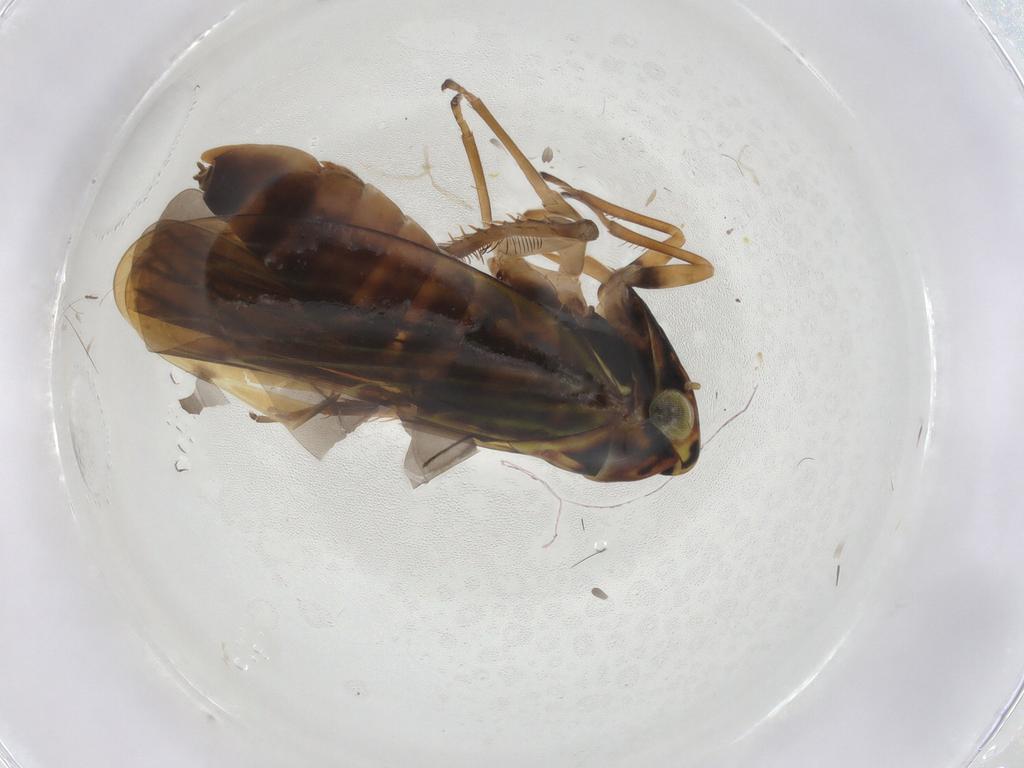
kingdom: Animalia
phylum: Arthropoda
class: Insecta
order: Hemiptera
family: Cicadellidae
